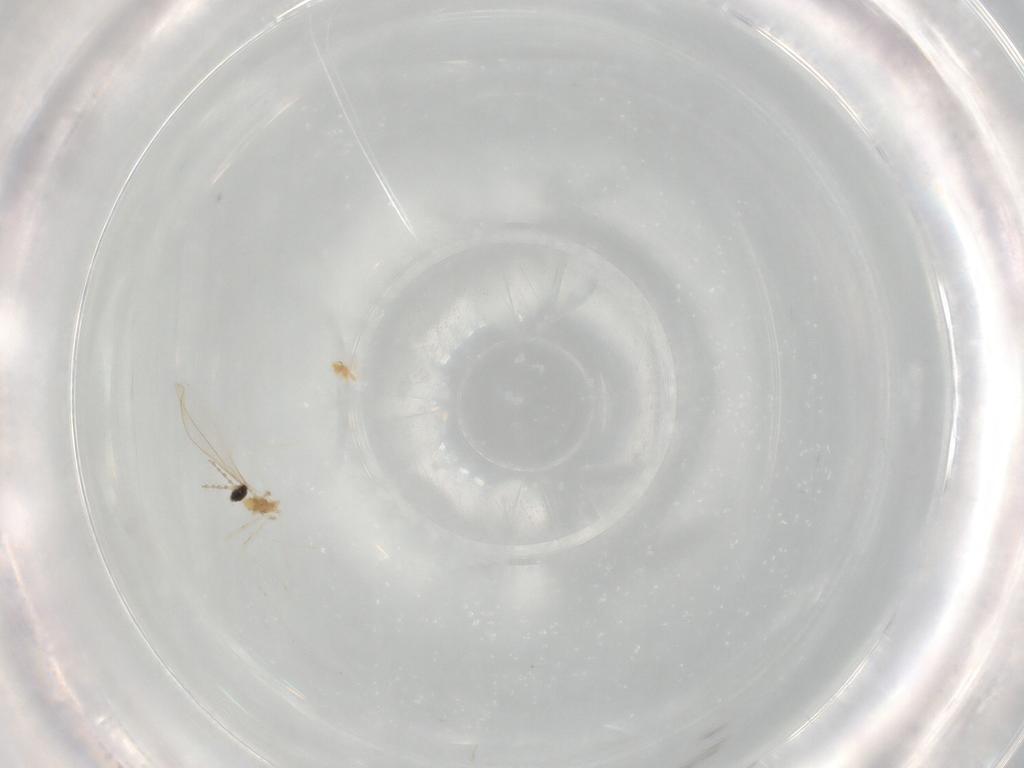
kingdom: Animalia
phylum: Arthropoda
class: Insecta
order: Diptera
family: Cecidomyiidae
